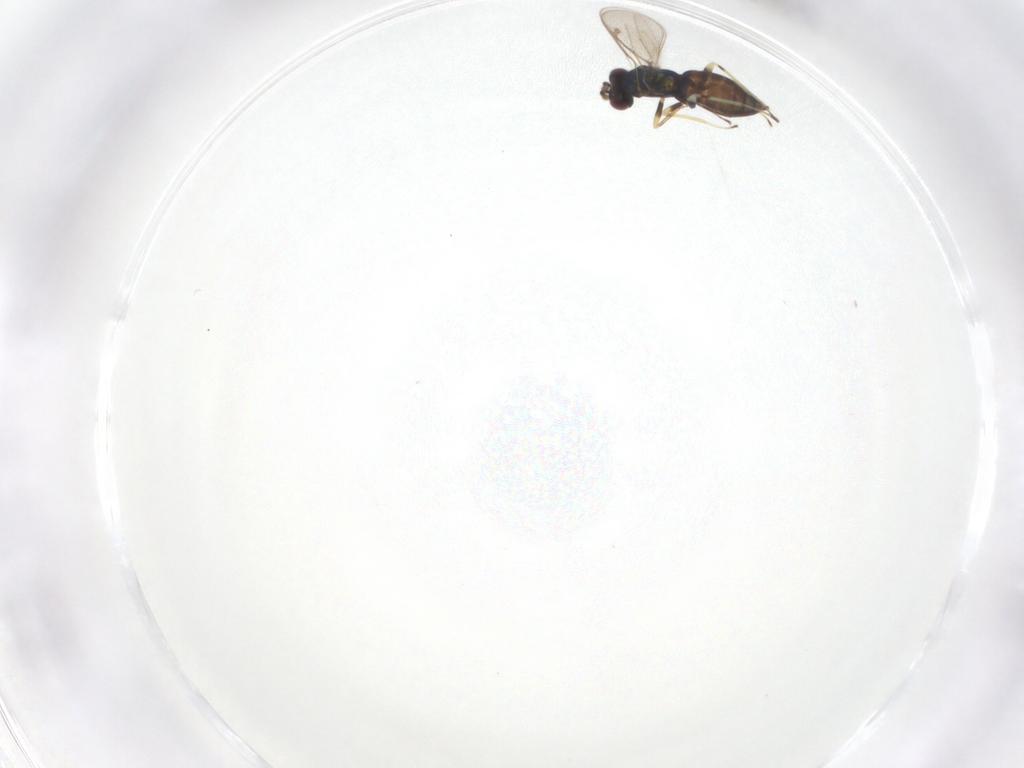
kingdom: Animalia
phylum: Arthropoda
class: Insecta
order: Hymenoptera
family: Eulophidae
